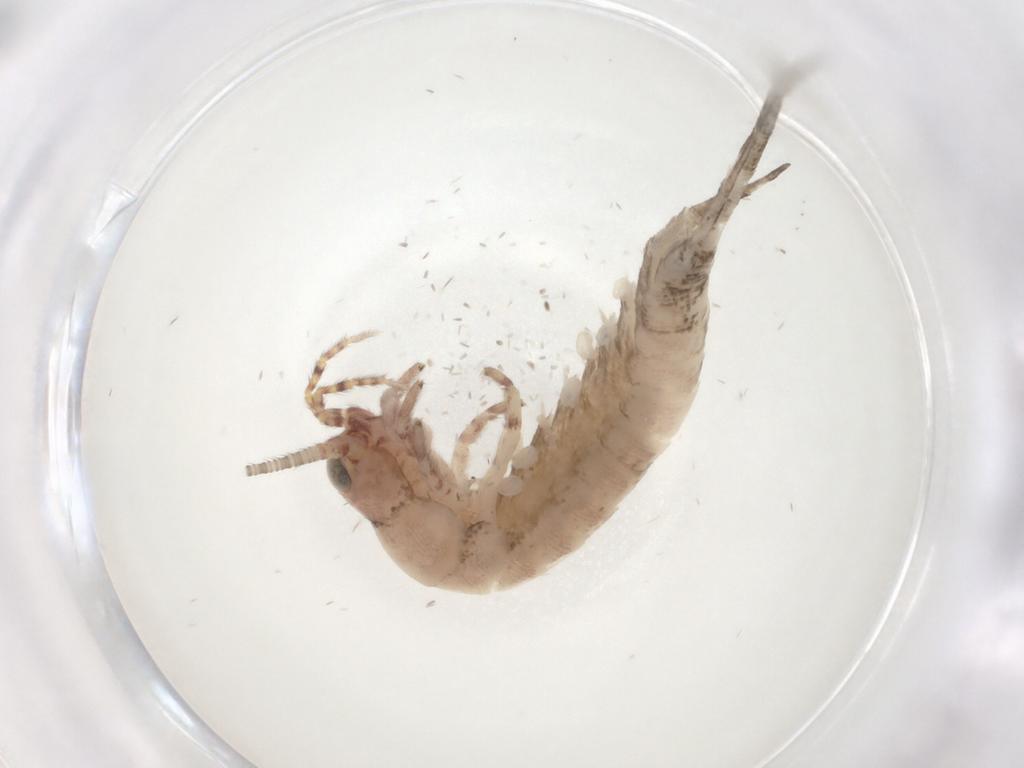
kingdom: Animalia
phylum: Arthropoda
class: Insecta
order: Archaeognatha
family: Machilidae
